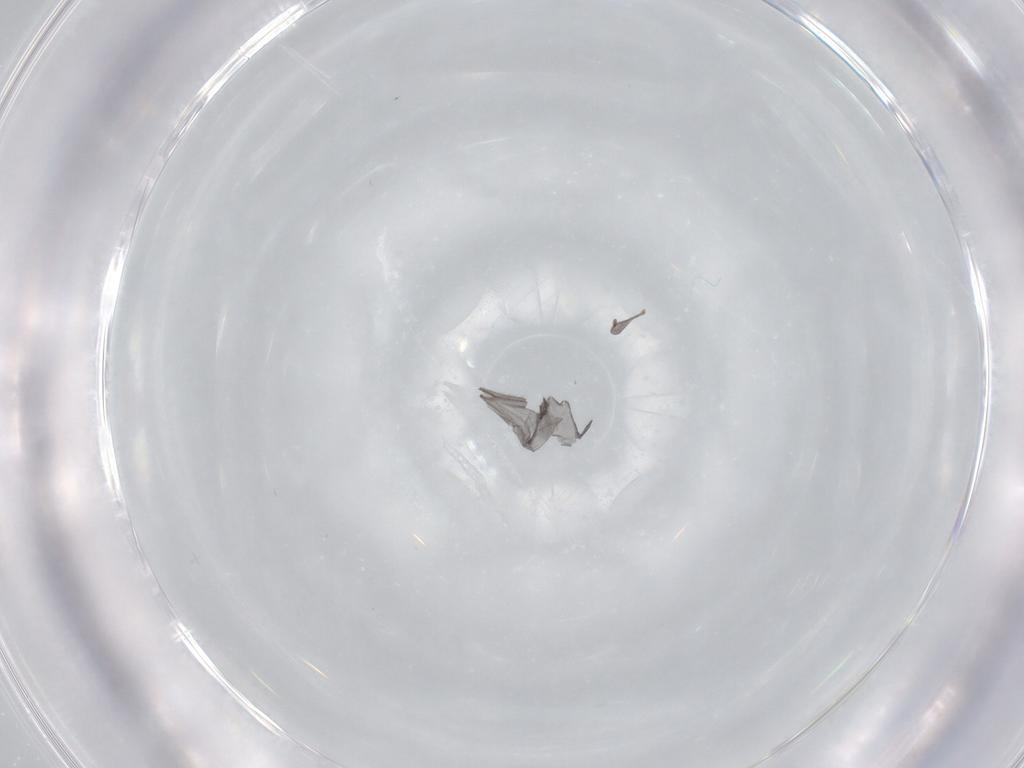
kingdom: Animalia
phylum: Arthropoda
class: Insecta
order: Diptera
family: Sciaridae
